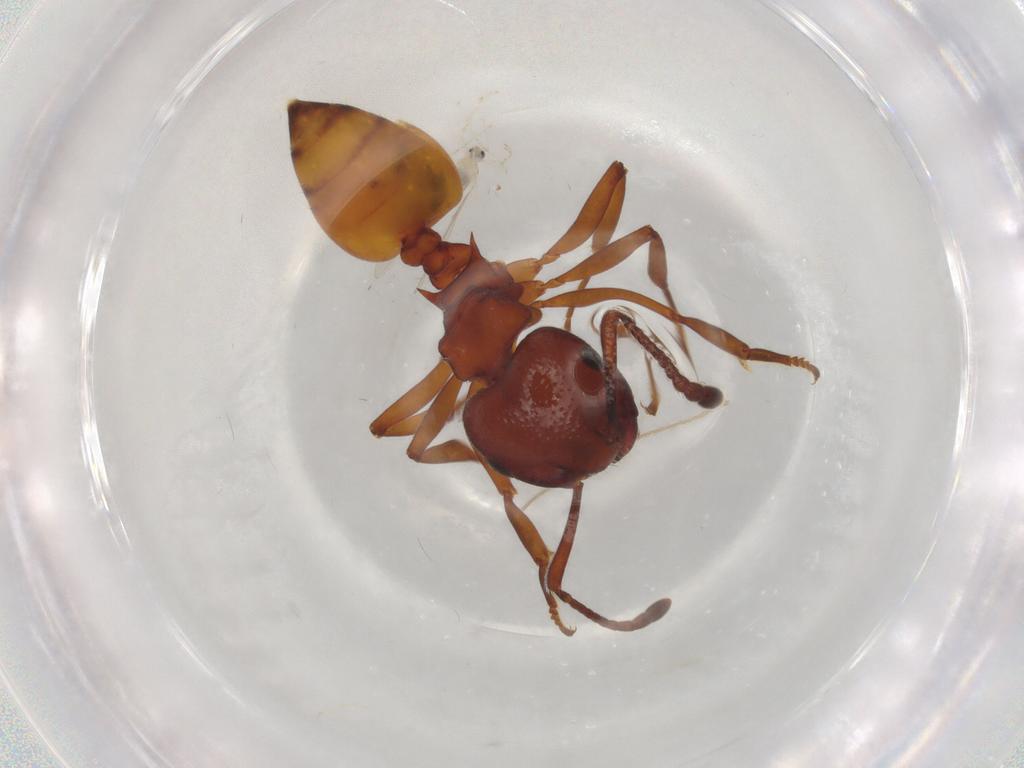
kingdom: Animalia
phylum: Arthropoda
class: Insecta
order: Hymenoptera
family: Formicidae
